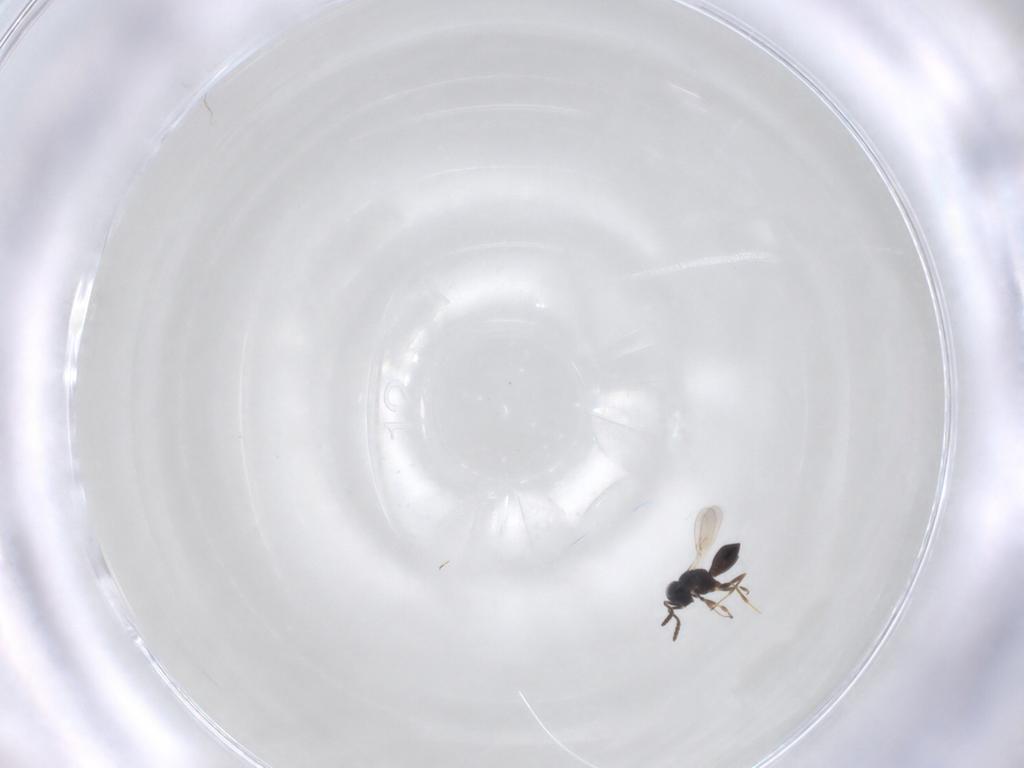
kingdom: Animalia
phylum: Arthropoda
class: Insecta
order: Hymenoptera
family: Scelionidae
